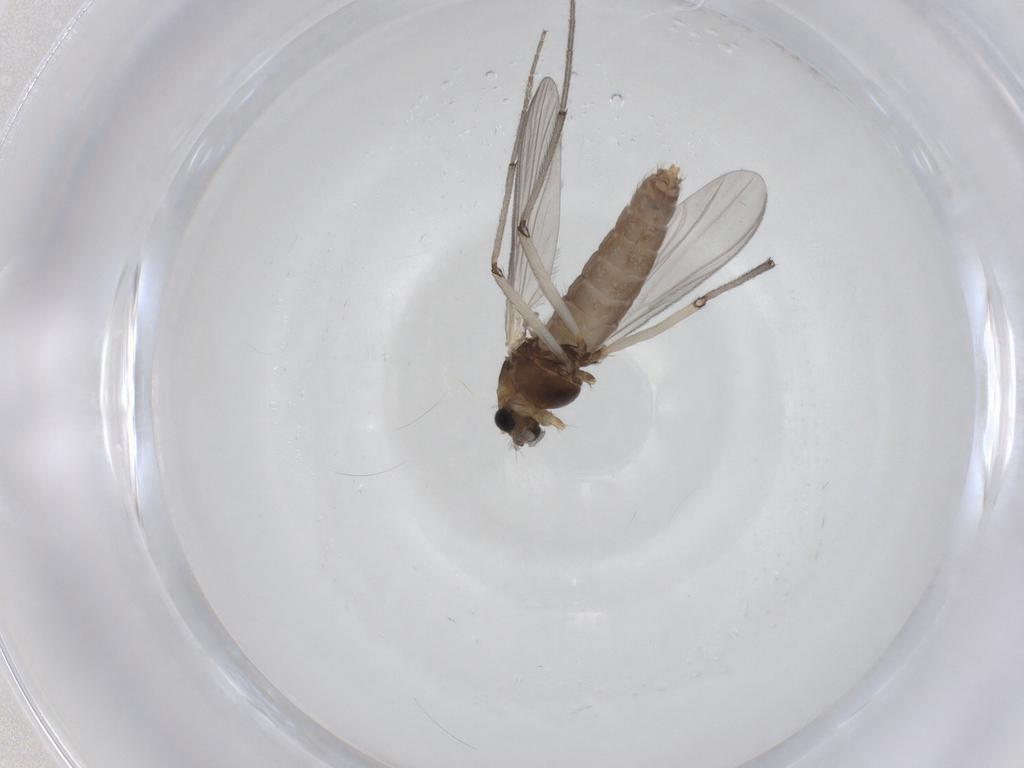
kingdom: Animalia
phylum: Arthropoda
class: Insecta
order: Diptera
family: Chironomidae
